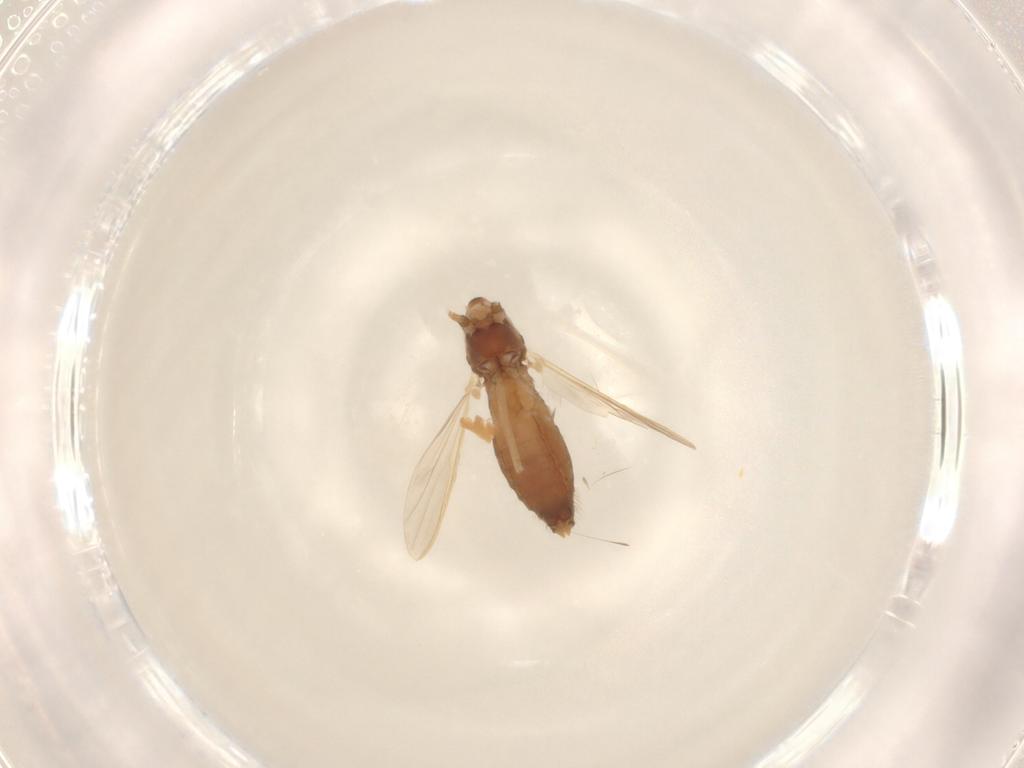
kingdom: Animalia
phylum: Arthropoda
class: Insecta
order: Diptera
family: Chironomidae
